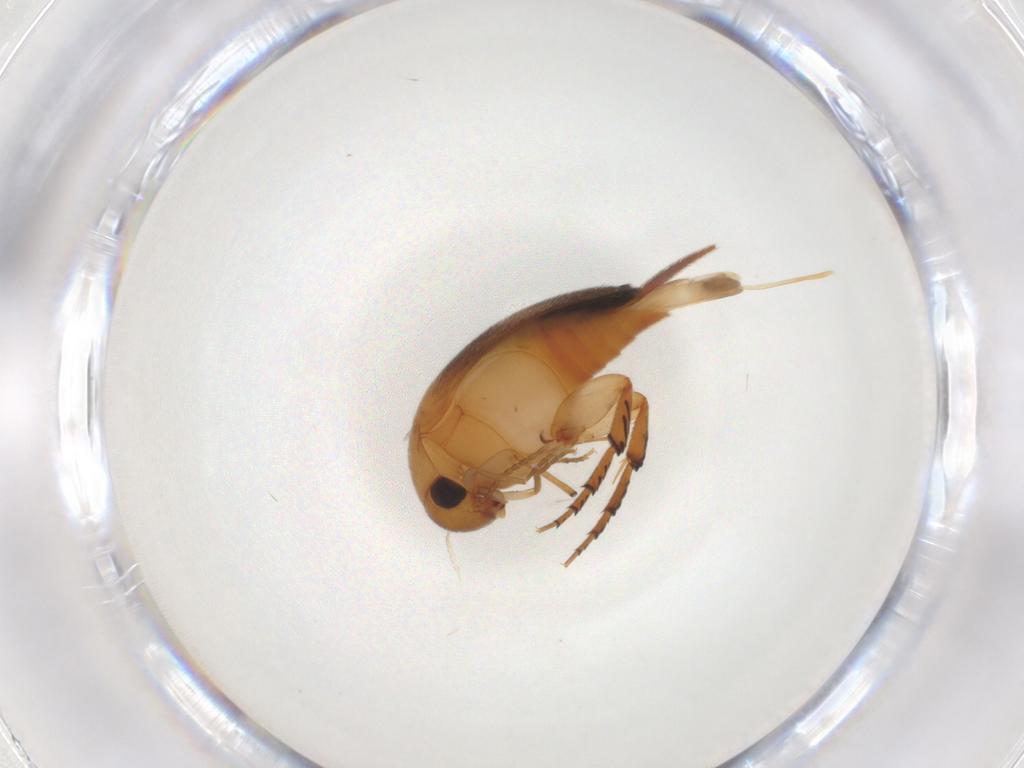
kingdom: Animalia
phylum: Arthropoda
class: Insecta
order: Coleoptera
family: Mordellidae
